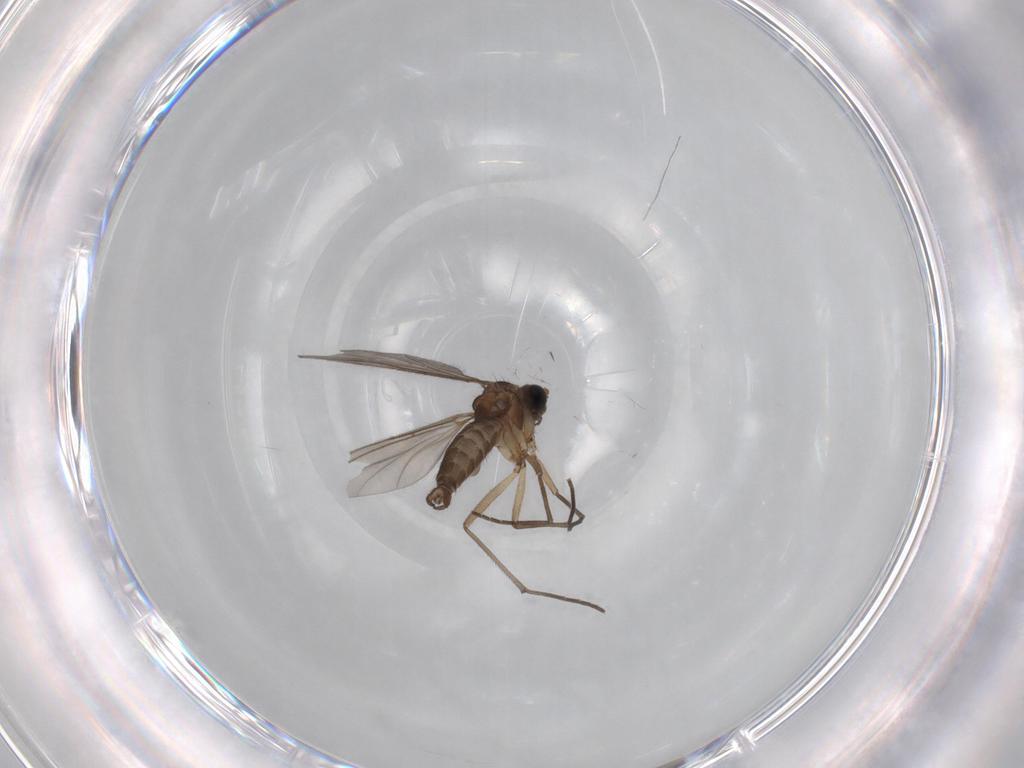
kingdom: Animalia
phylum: Arthropoda
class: Insecta
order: Diptera
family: Sciaridae
